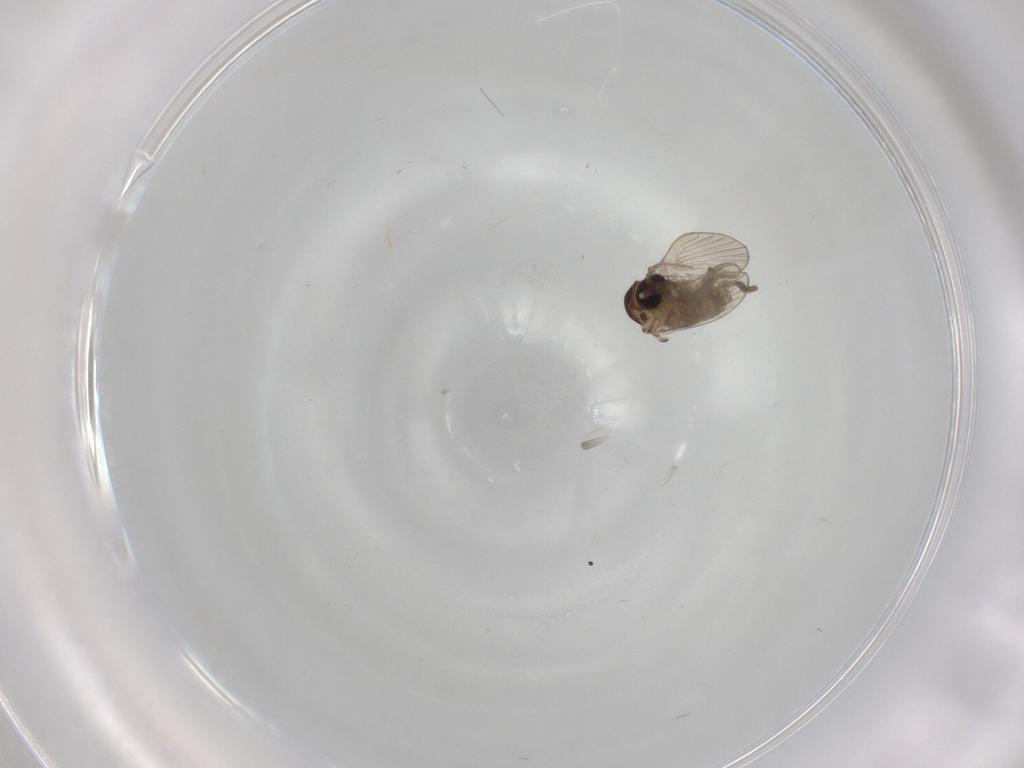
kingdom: Animalia
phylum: Arthropoda
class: Insecta
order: Diptera
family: Psychodidae
